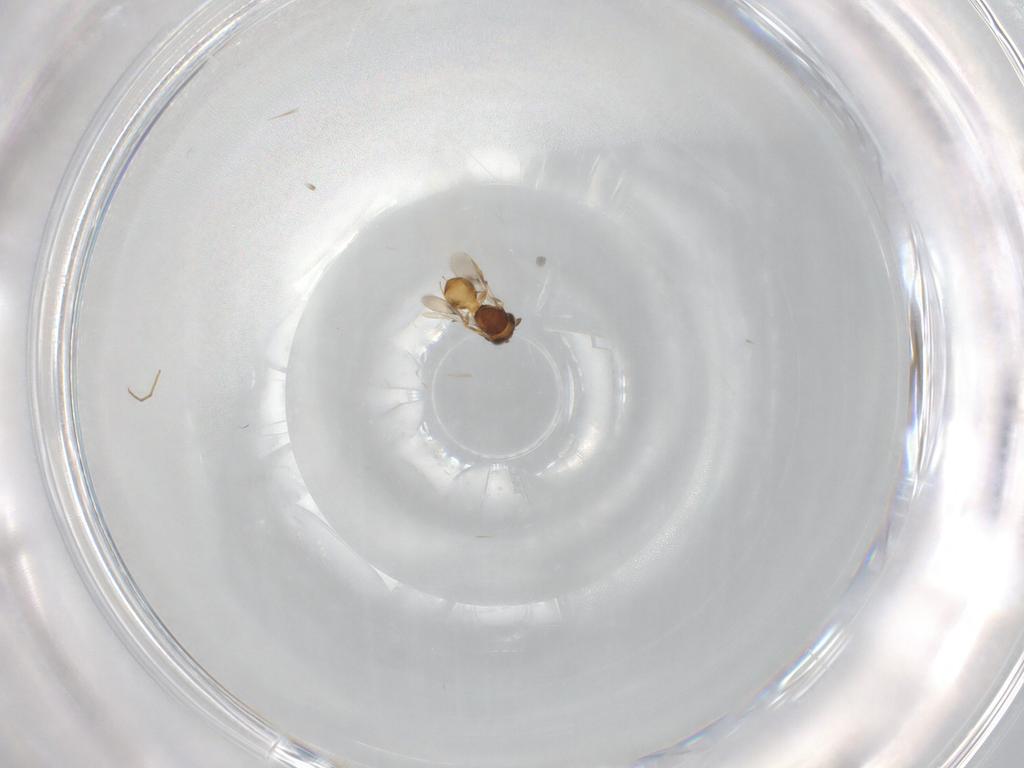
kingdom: Animalia
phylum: Arthropoda
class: Insecta
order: Hymenoptera
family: Scelionidae
